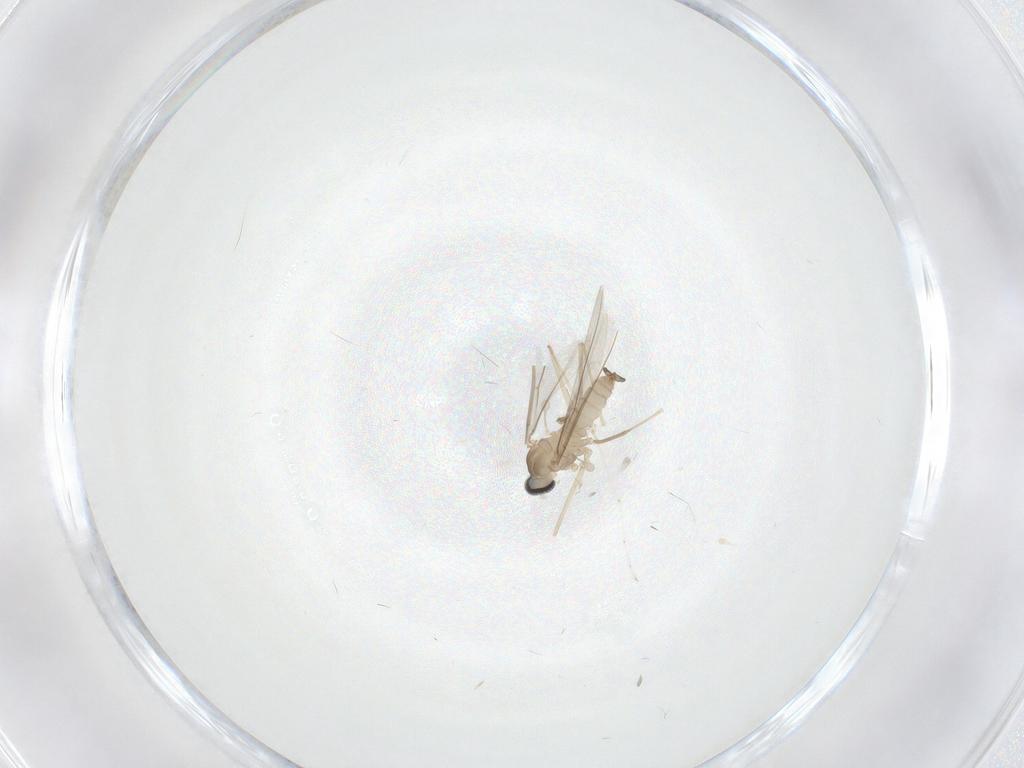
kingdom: Animalia
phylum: Arthropoda
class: Insecta
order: Diptera
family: Cecidomyiidae
